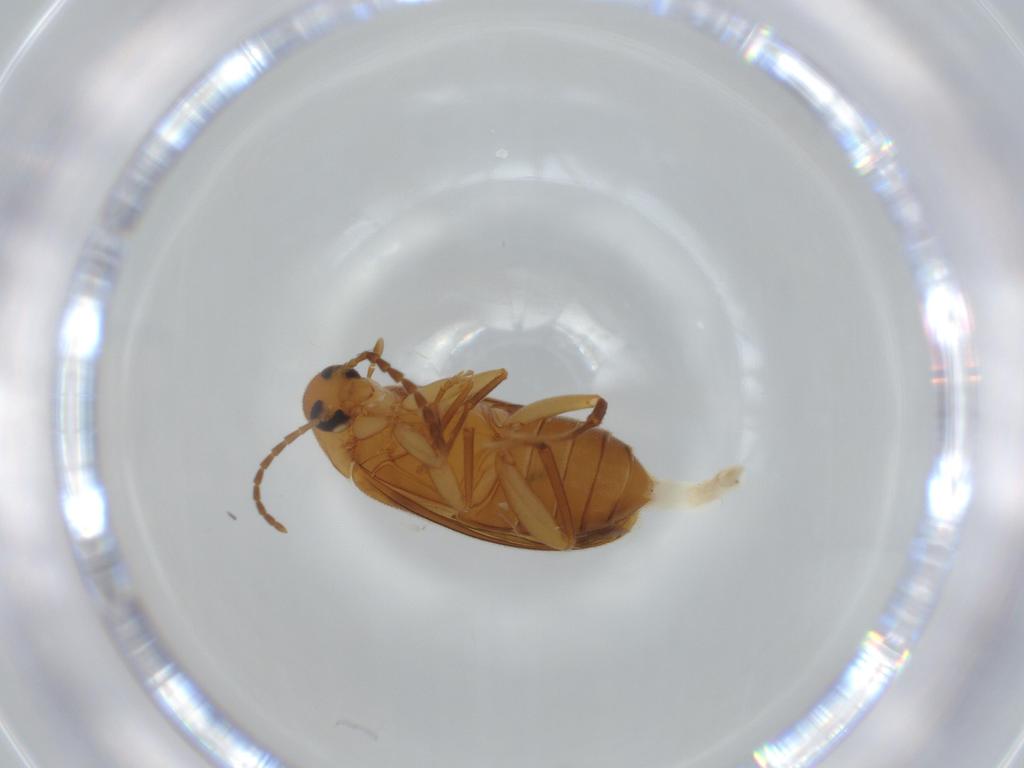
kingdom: Animalia
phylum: Arthropoda
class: Insecta
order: Coleoptera
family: Scraptiidae
